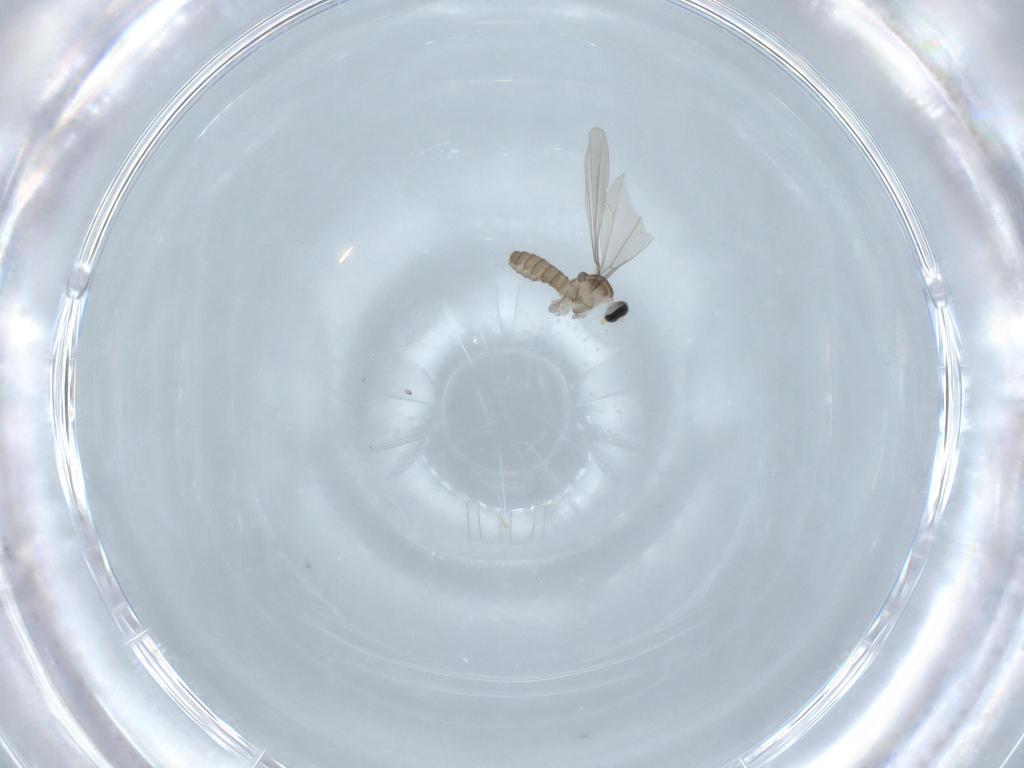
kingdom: Animalia
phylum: Arthropoda
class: Insecta
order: Diptera
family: Cecidomyiidae
